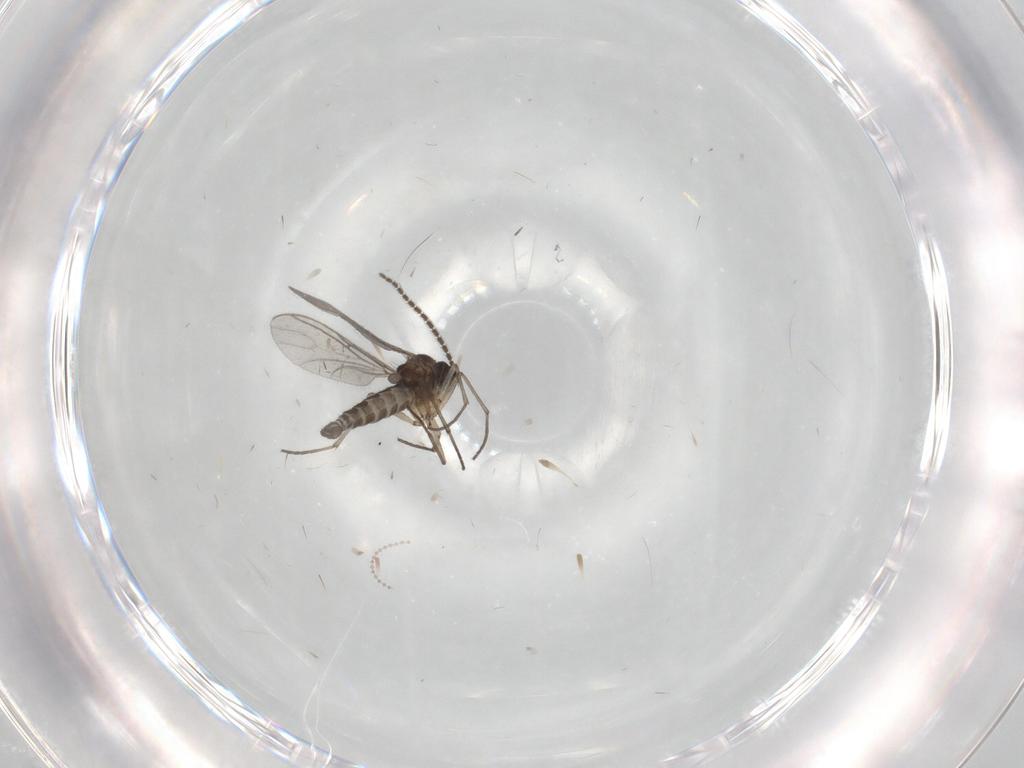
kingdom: Animalia
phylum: Arthropoda
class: Insecta
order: Diptera
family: Sciaridae
